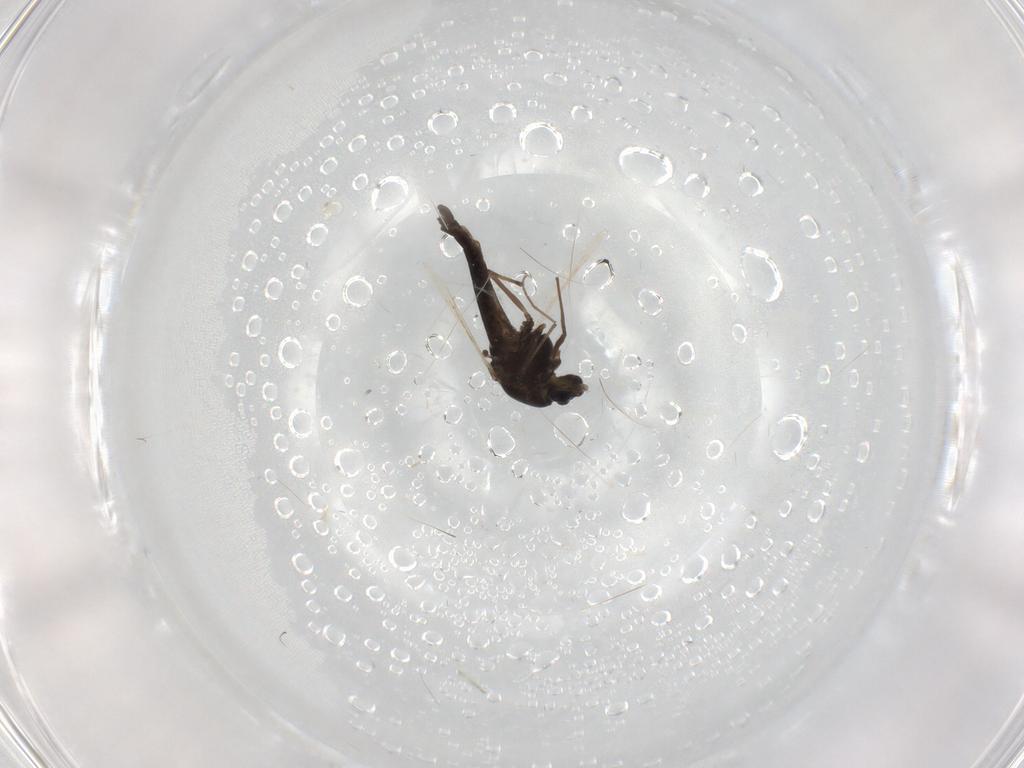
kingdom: Animalia
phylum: Arthropoda
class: Insecta
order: Diptera
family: Chironomidae
